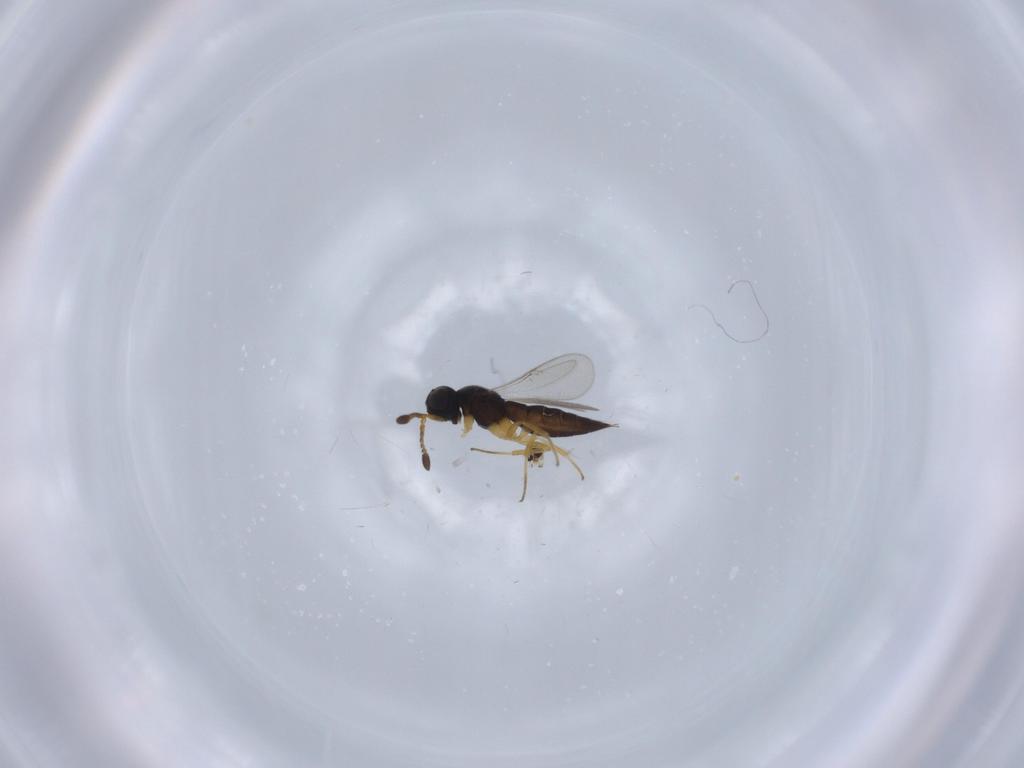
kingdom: Animalia
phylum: Arthropoda
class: Insecta
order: Hymenoptera
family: Scelionidae
